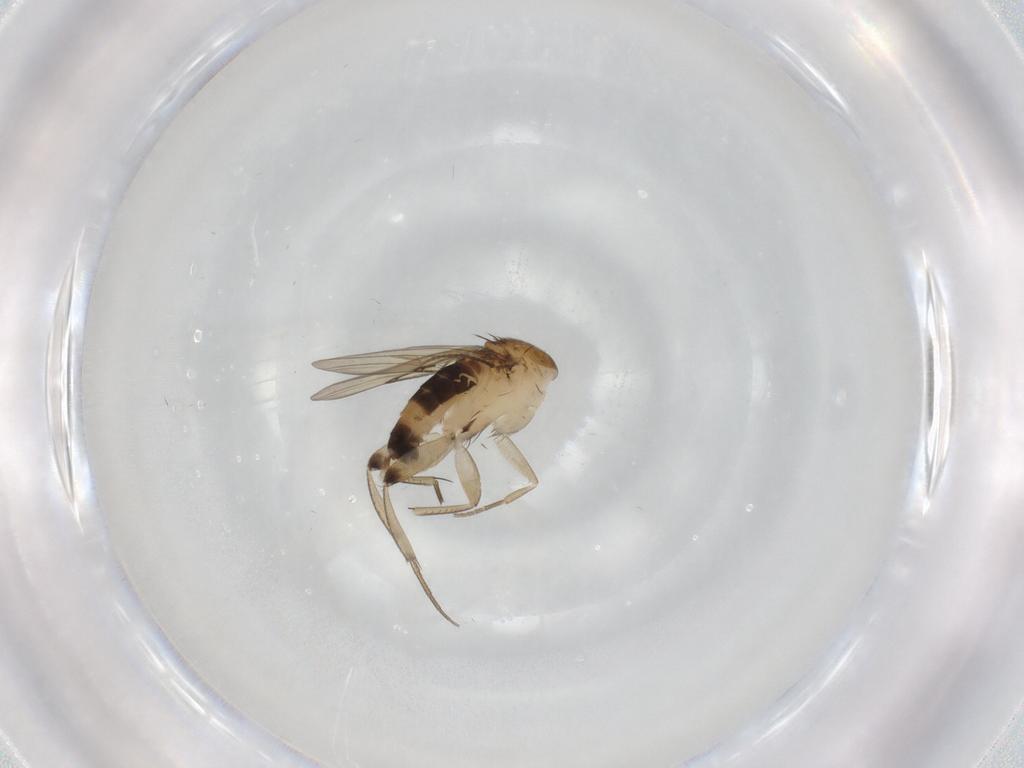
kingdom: Animalia
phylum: Arthropoda
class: Insecta
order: Diptera
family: Phoridae
